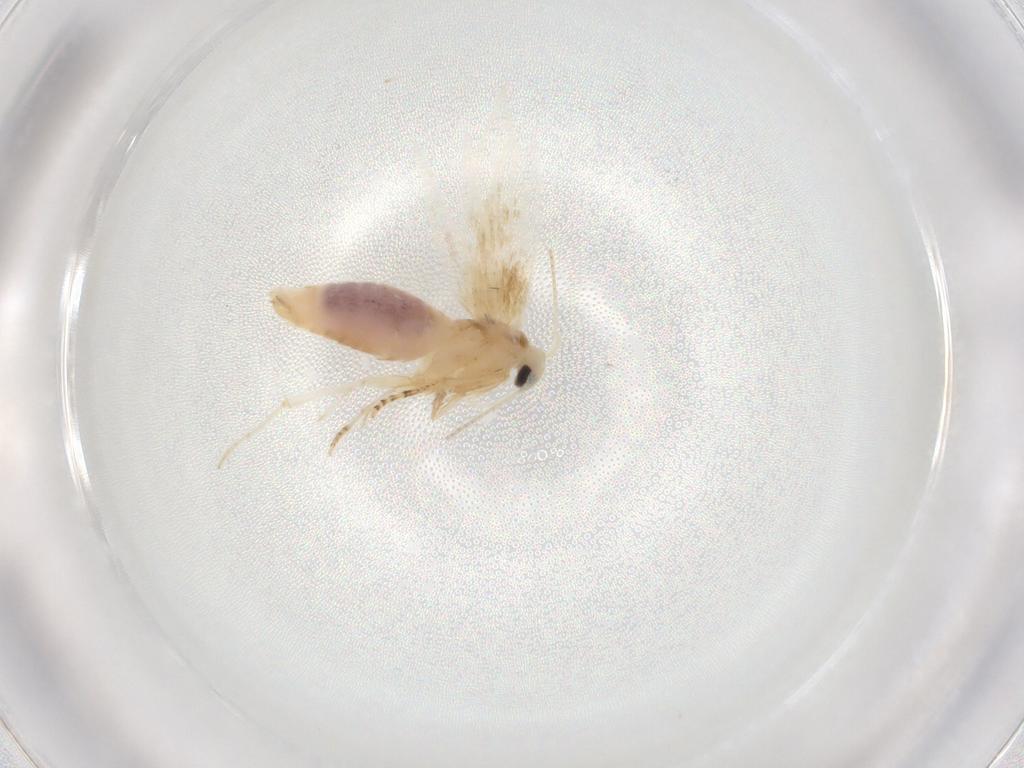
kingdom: Animalia
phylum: Arthropoda
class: Insecta
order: Lepidoptera
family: Bucculatricidae
